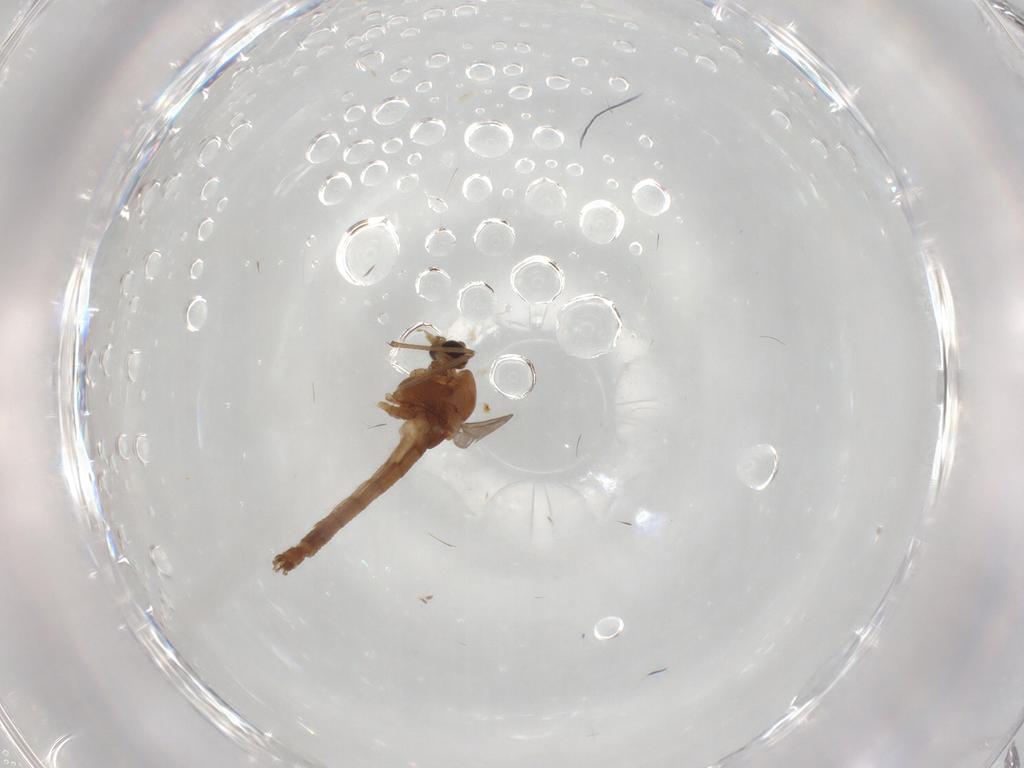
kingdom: Animalia
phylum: Arthropoda
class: Insecta
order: Diptera
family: Chironomidae
